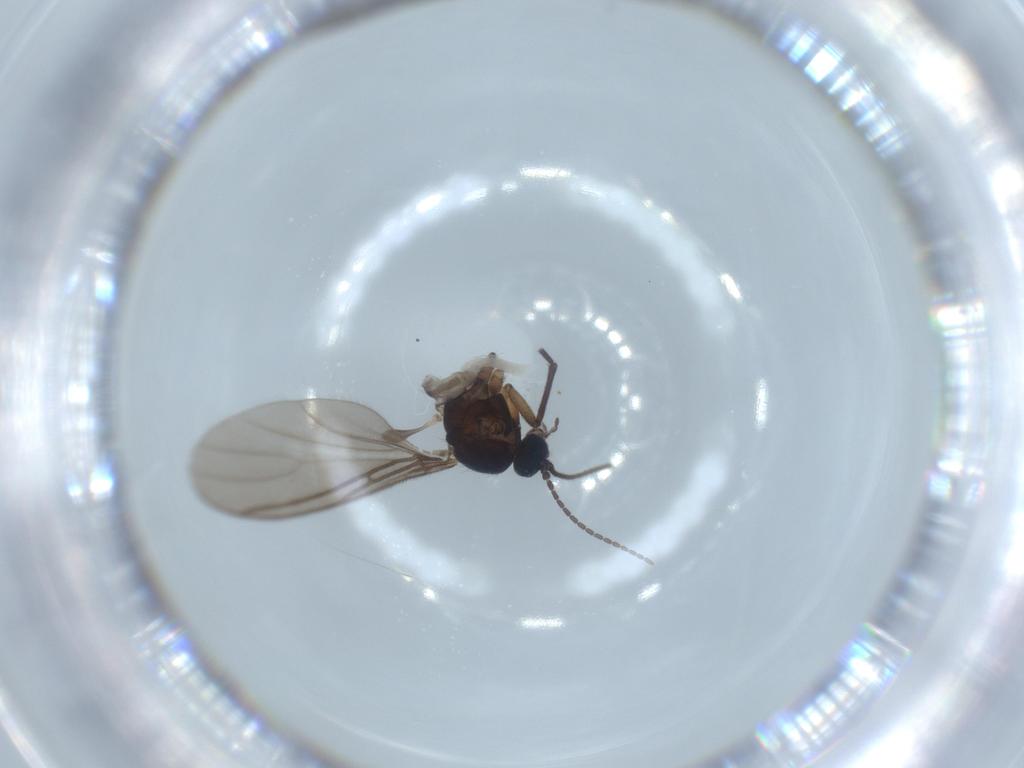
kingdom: Animalia
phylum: Arthropoda
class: Insecta
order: Diptera
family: Sciaridae
